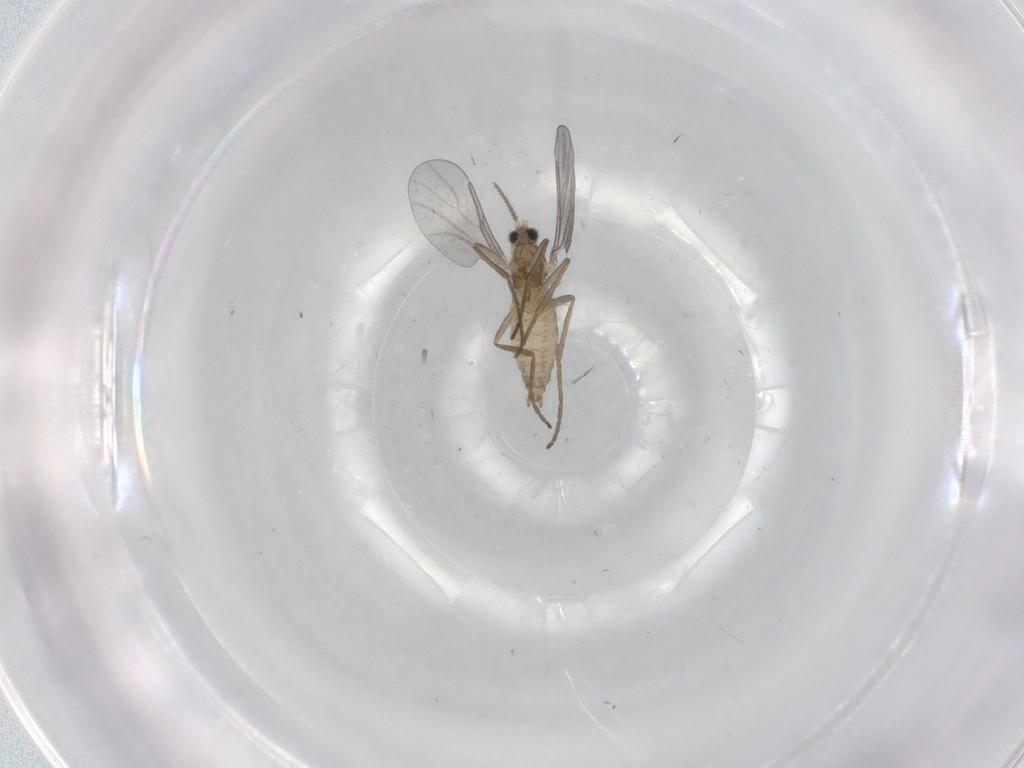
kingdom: Animalia
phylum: Arthropoda
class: Insecta
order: Diptera
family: Cecidomyiidae
